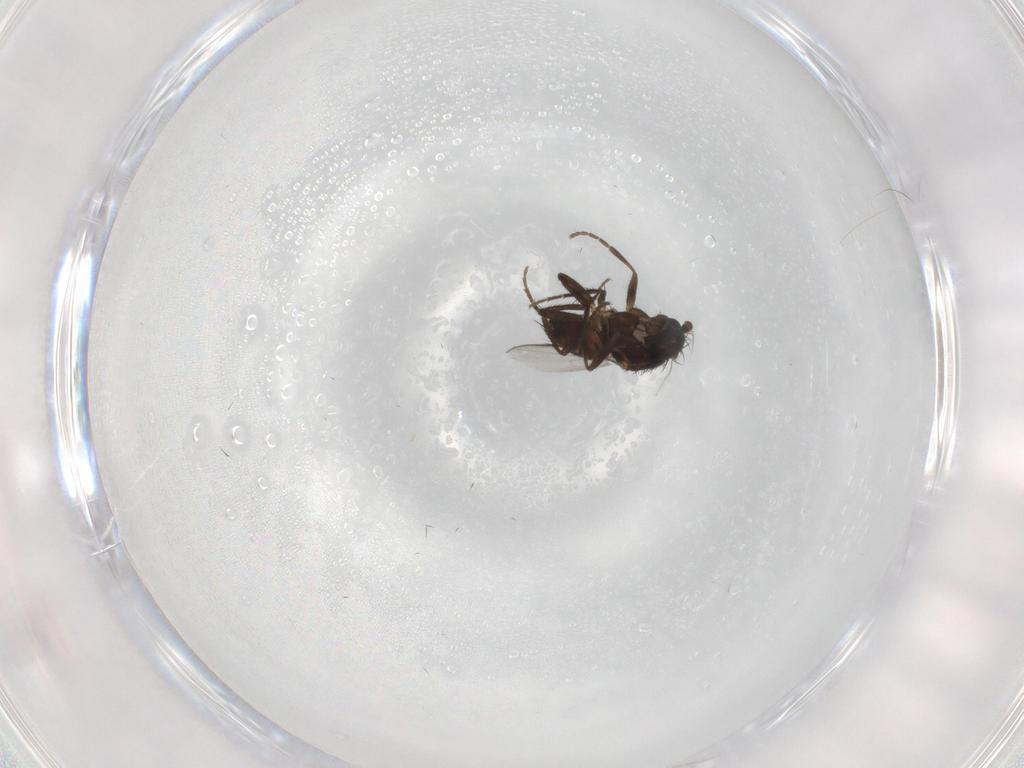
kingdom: Animalia
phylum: Arthropoda
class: Insecta
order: Diptera
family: Sphaeroceridae
